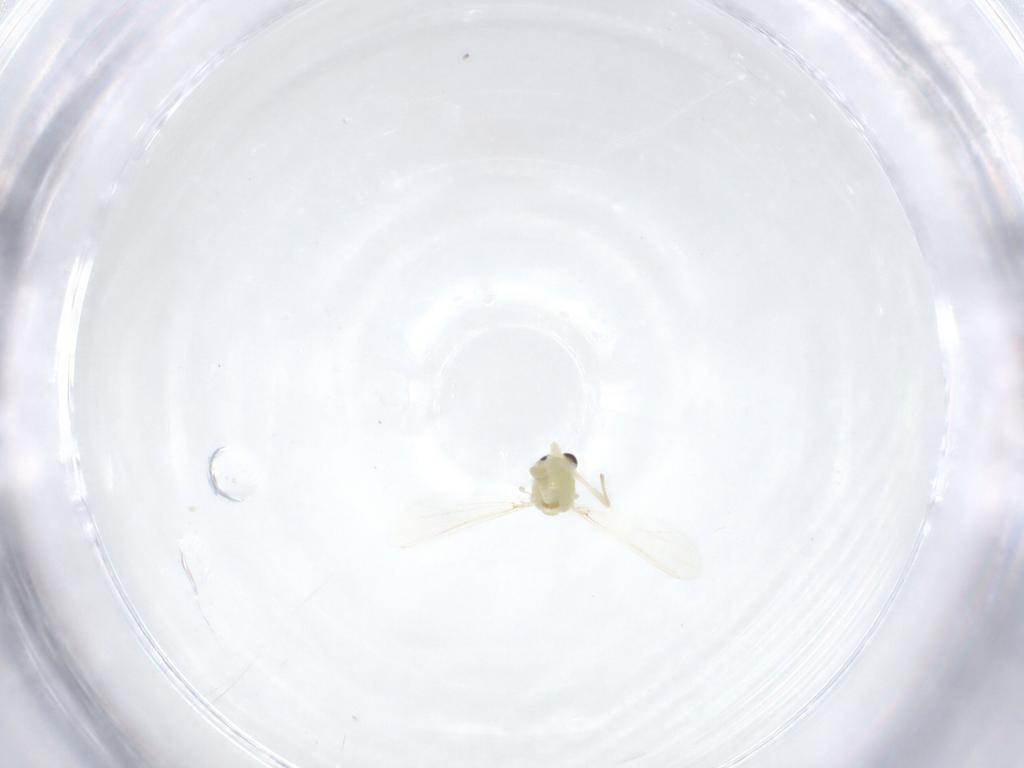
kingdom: Animalia
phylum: Arthropoda
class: Insecta
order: Diptera
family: Chironomidae
